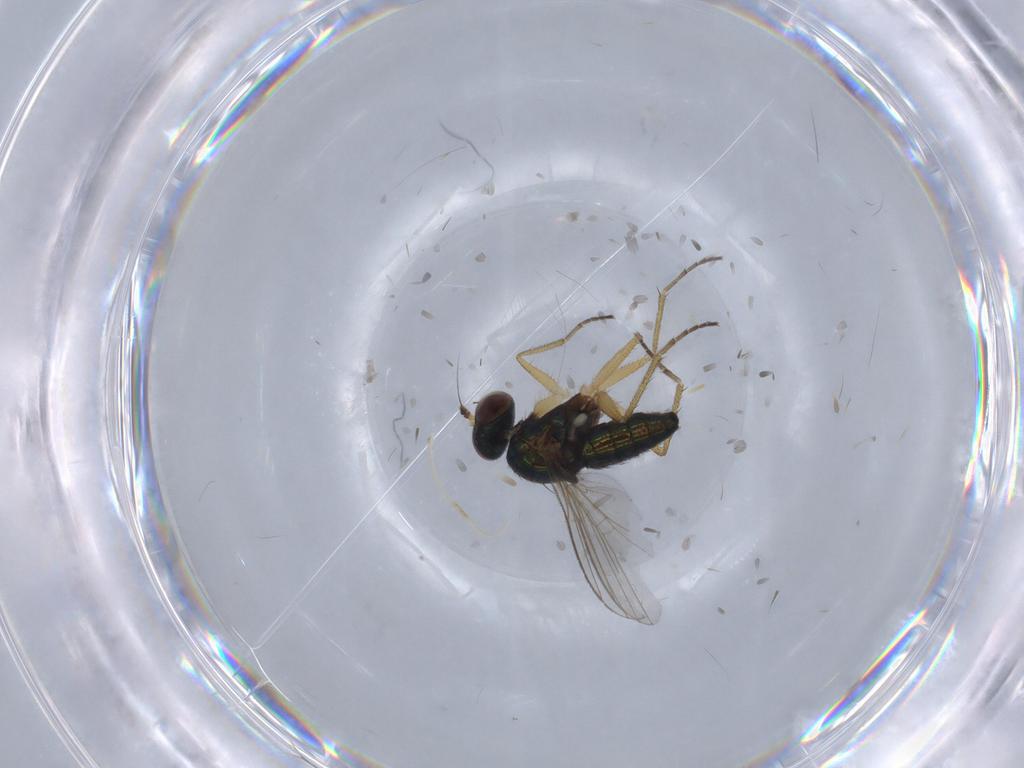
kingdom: Animalia
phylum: Arthropoda
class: Insecta
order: Diptera
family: Dolichopodidae
